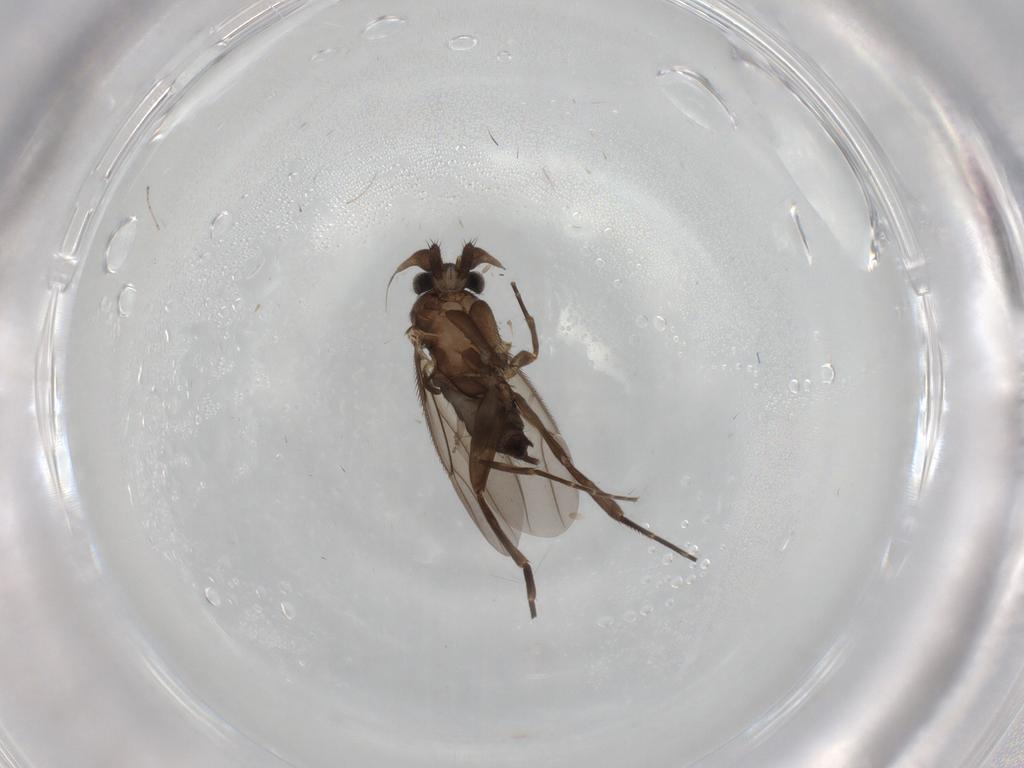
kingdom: Animalia
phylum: Arthropoda
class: Insecta
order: Diptera
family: Phoridae
